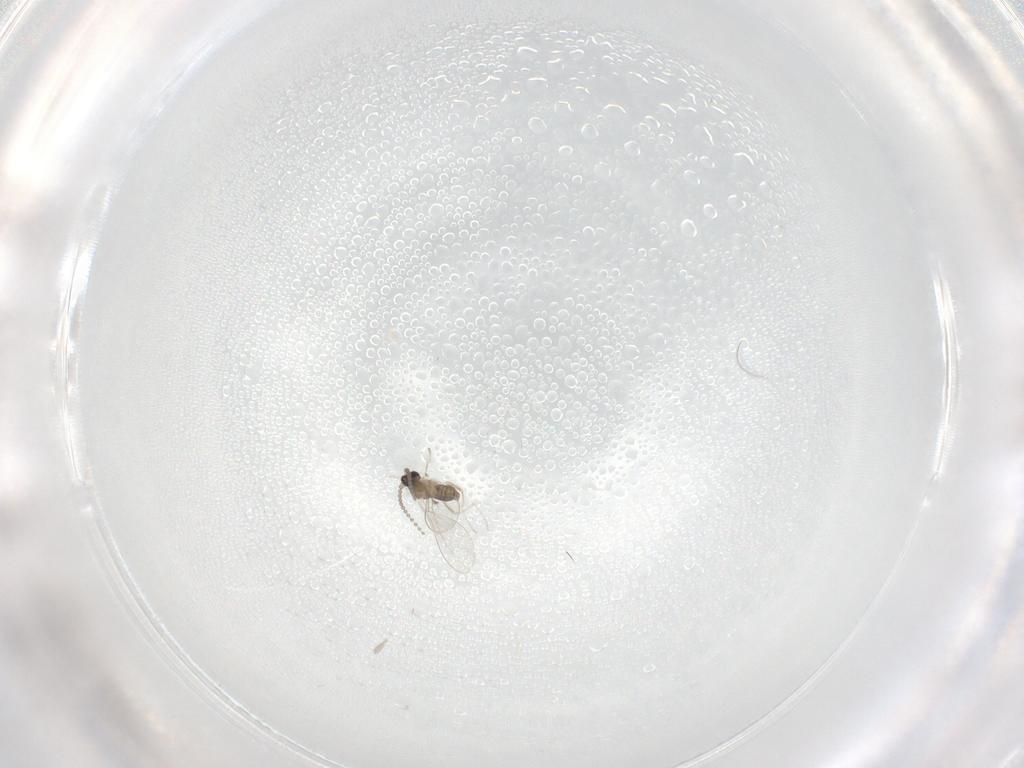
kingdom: Animalia
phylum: Arthropoda
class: Insecta
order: Diptera
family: Cecidomyiidae
